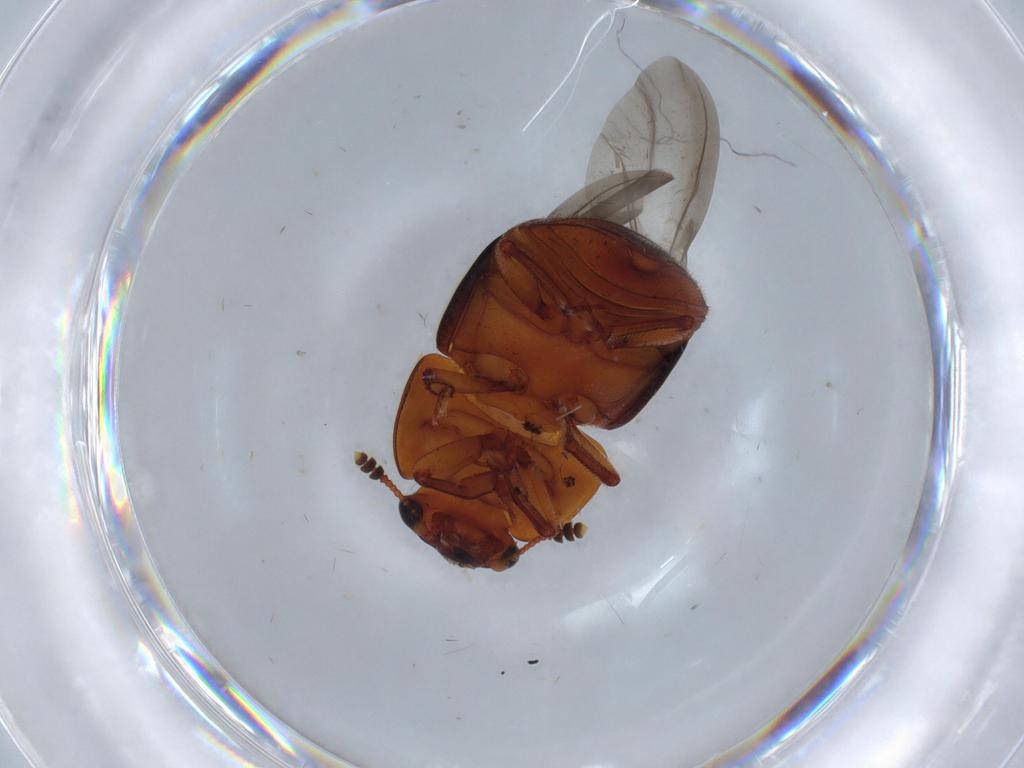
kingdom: Animalia
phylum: Arthropoda
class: Insecta
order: Coleoptera
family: Nitidulidae
